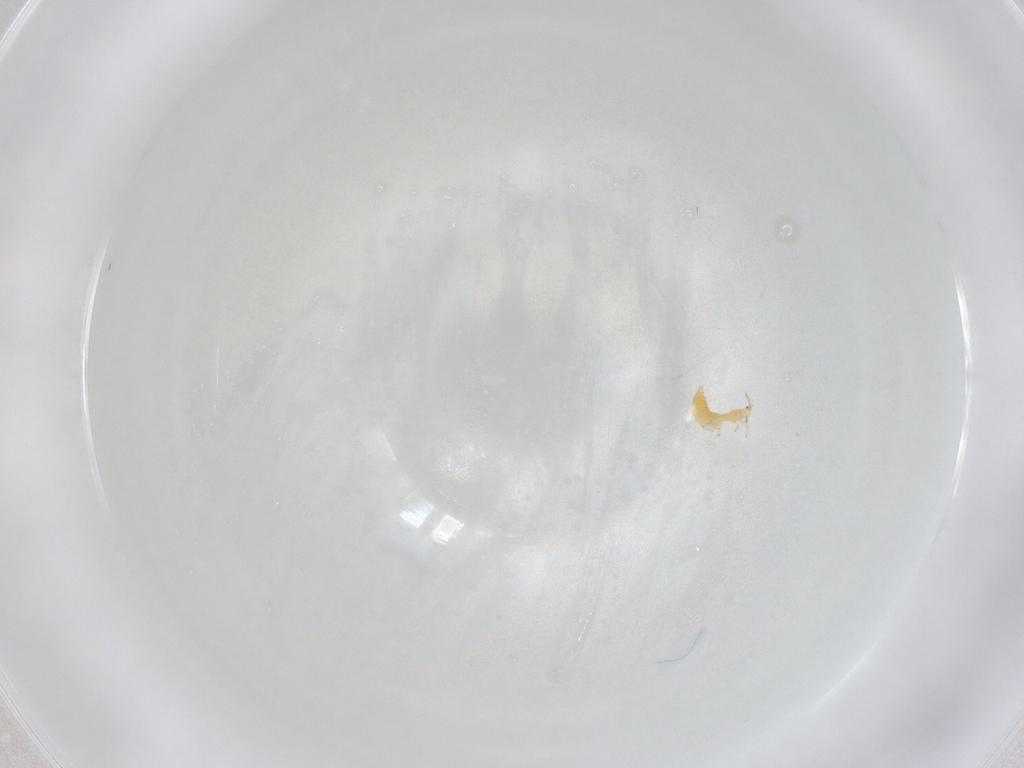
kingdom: Animalia
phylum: Arthropoda
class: Insecta
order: Thysanoptera
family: Thripidae
